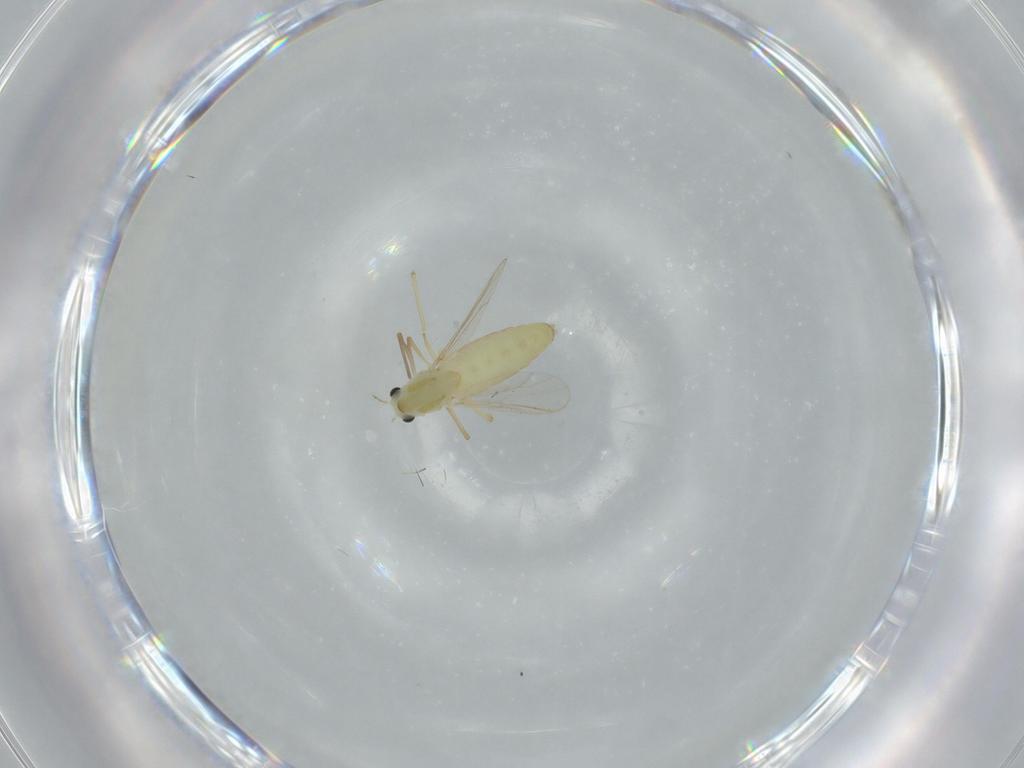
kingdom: Animalia
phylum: Arthropoda
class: Insecta
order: Diptera
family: Chironomidae
